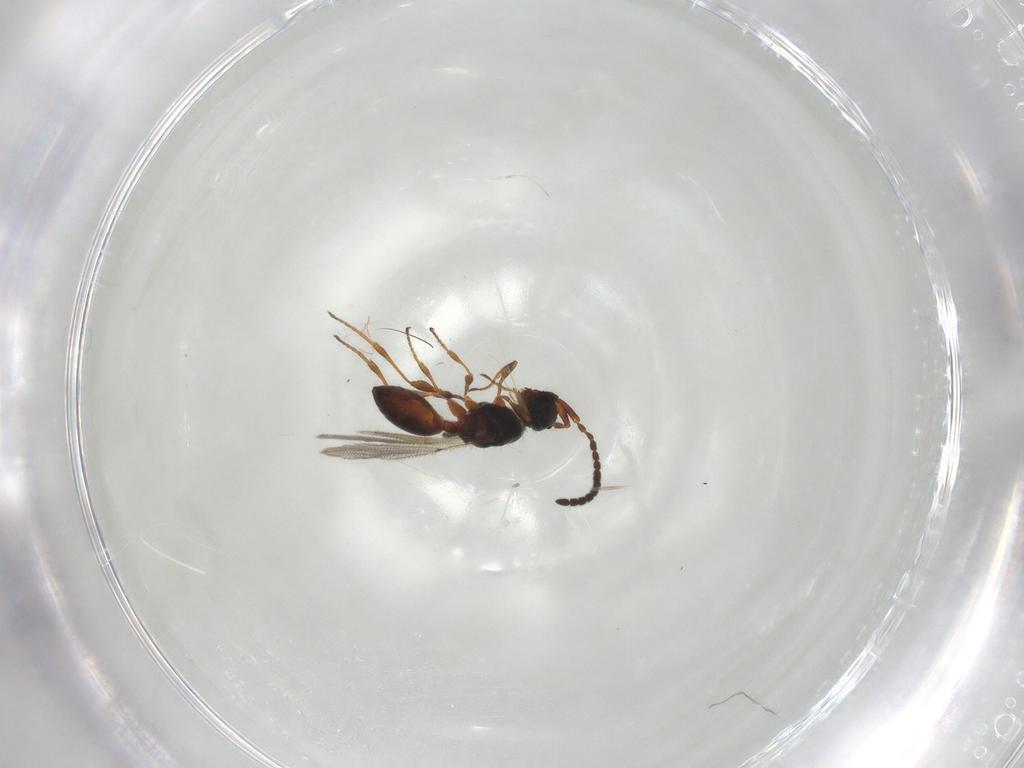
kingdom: Animalia
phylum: Arthropoda
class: Insecta
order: Hymenoptera
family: Diapriidae
